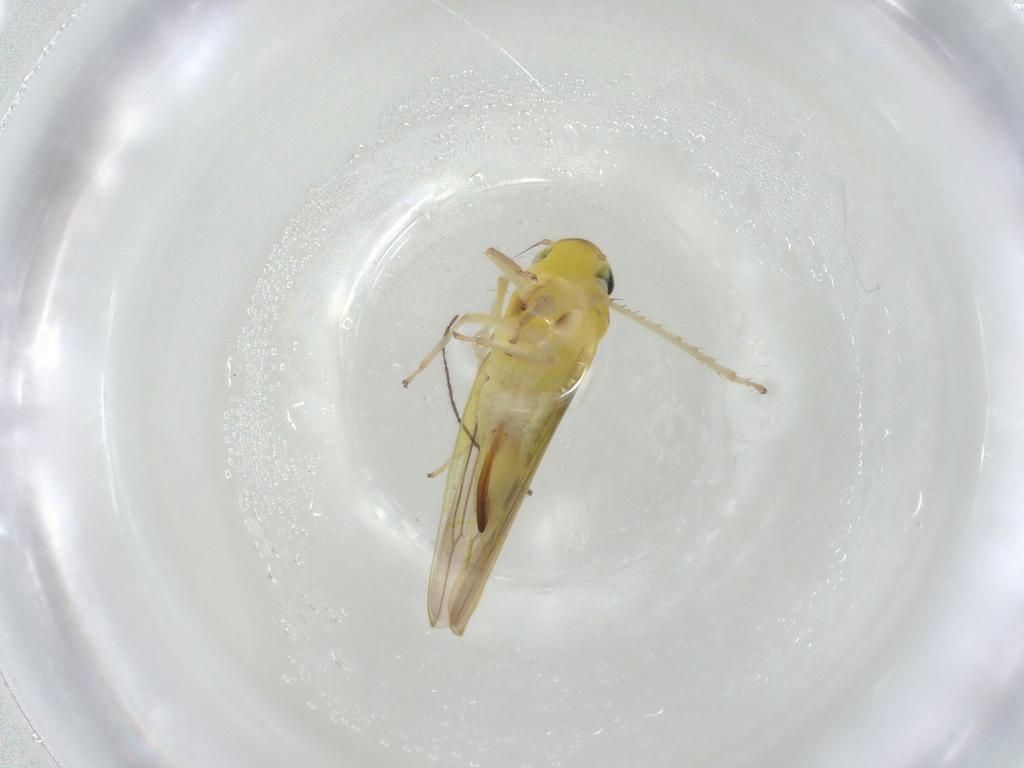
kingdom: Animalia
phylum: Arthropoda
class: Insecta
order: Hemiptera
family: Cicadellidae
